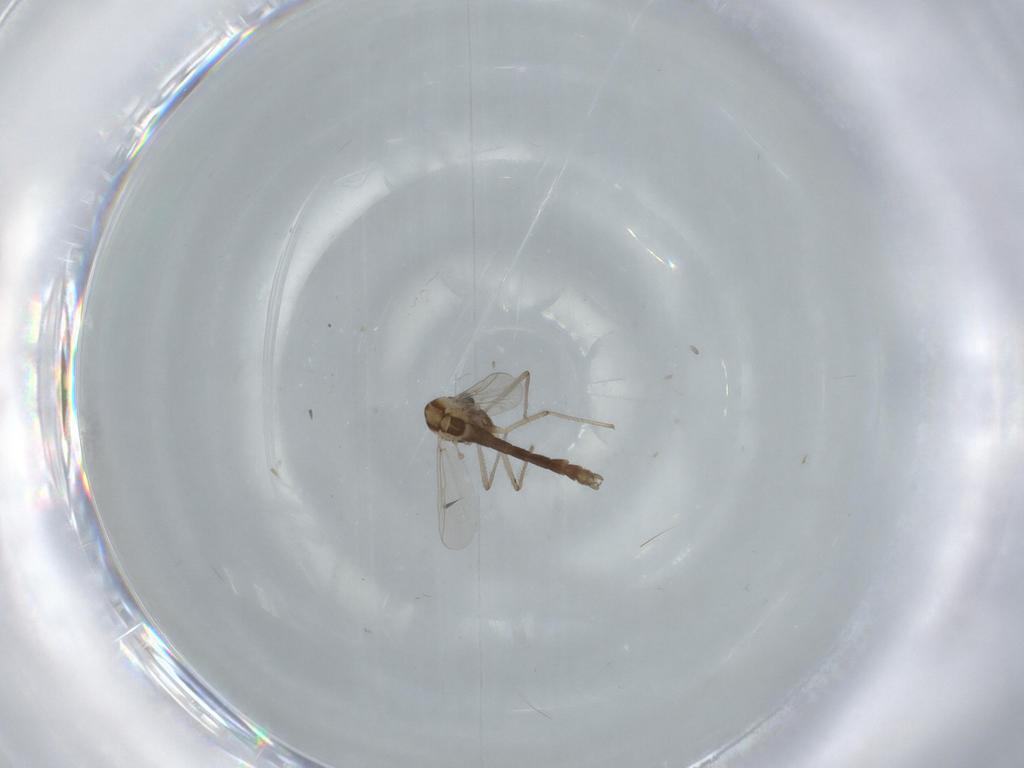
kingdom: Animalia
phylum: Arthropoda
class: Insecta
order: Diptera
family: Chironomidae
